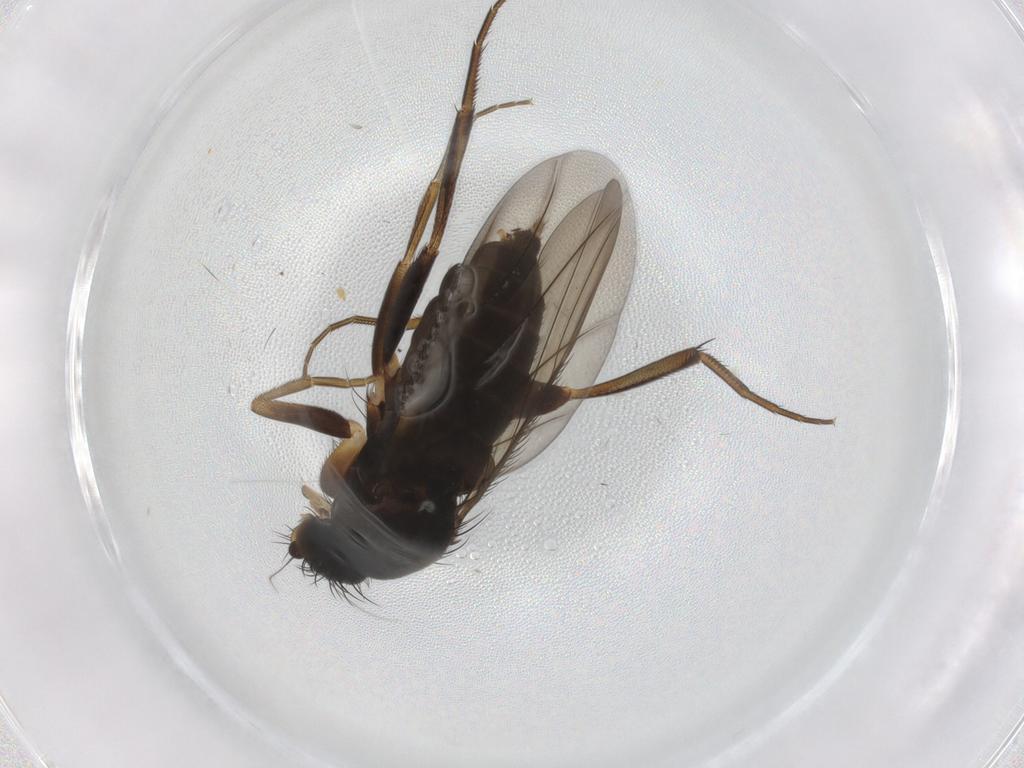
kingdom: Animalia
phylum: Arthropoda
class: Insecta
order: Diptera
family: Phoridae
